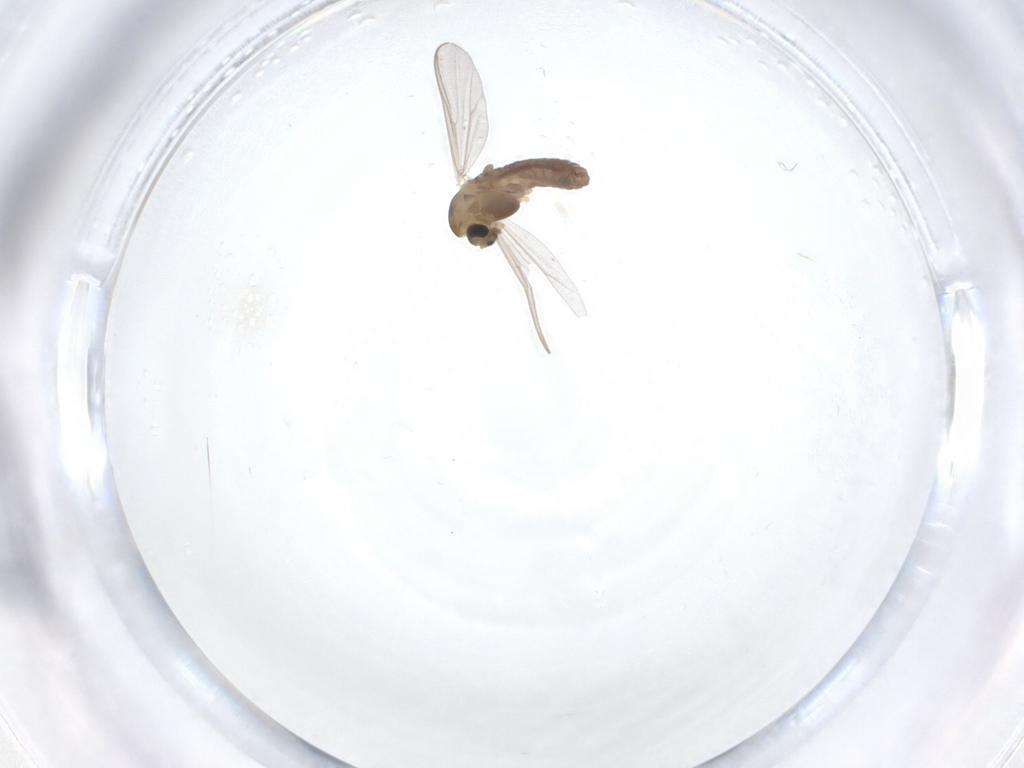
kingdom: Animalia
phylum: Arthropoda
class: Insecta
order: Diptera
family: Chironomidae
